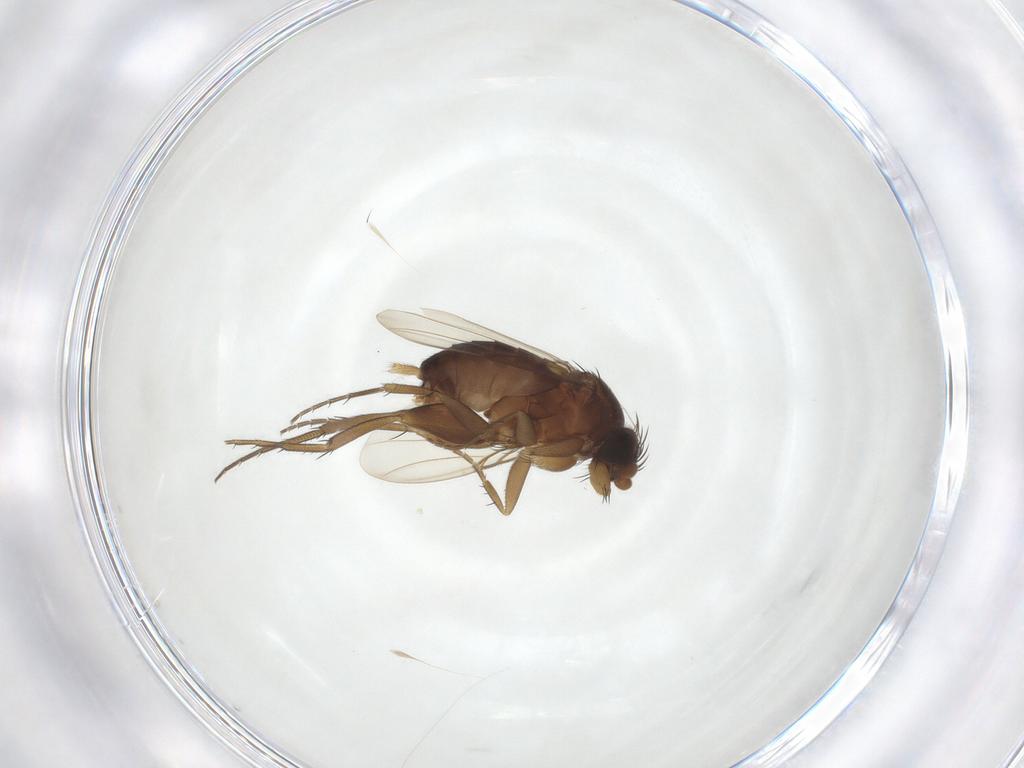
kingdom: Animalia
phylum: Arthropoda
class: Insecta
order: Diptera
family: Phoridae
